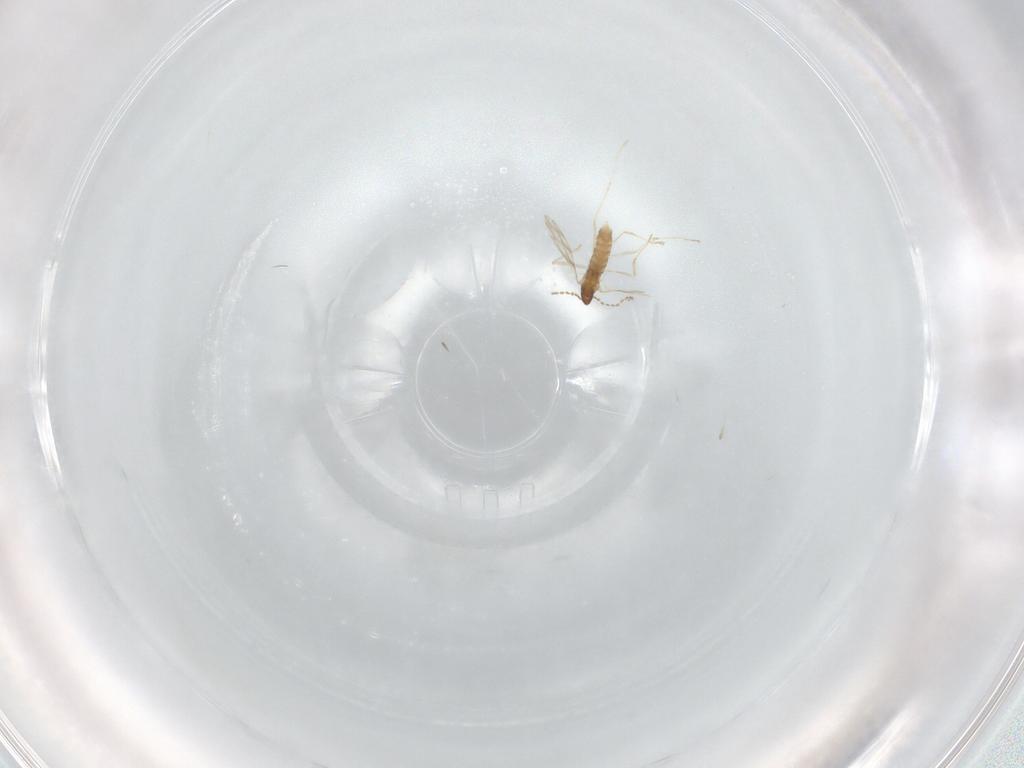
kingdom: Animalia
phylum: Arthropoda
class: Insecta
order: Diptera
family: Cecidomyiidae
